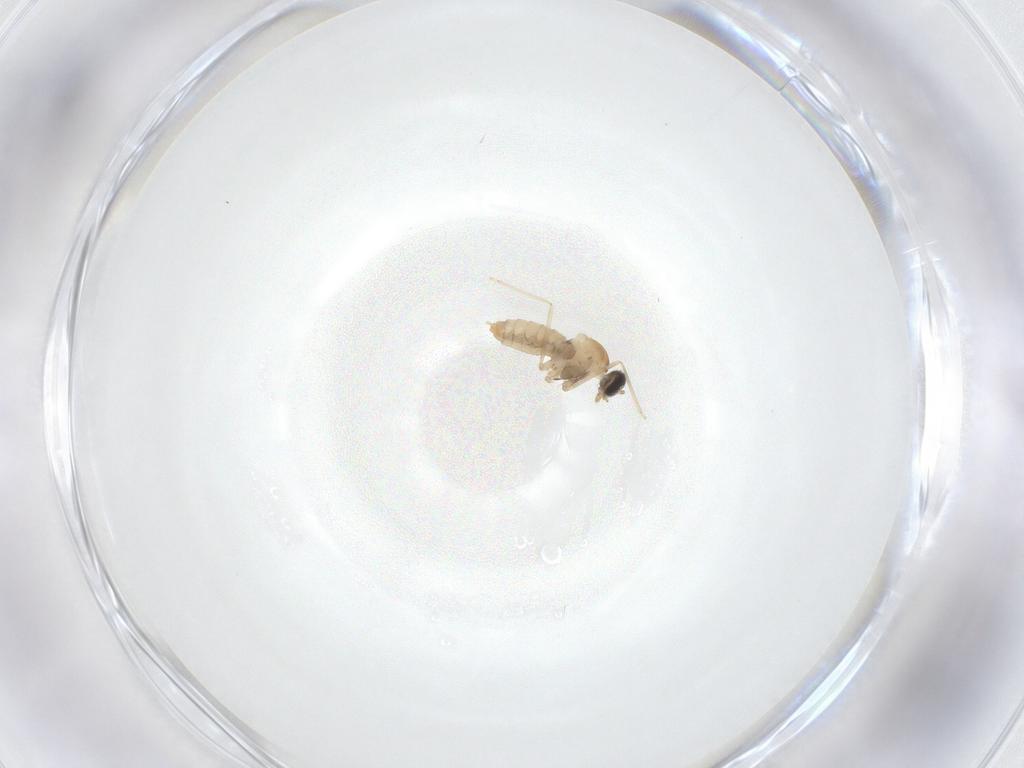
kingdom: Animalia
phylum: Arthropoda
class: Insecta
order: Diptera
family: Cecidomyiidae
